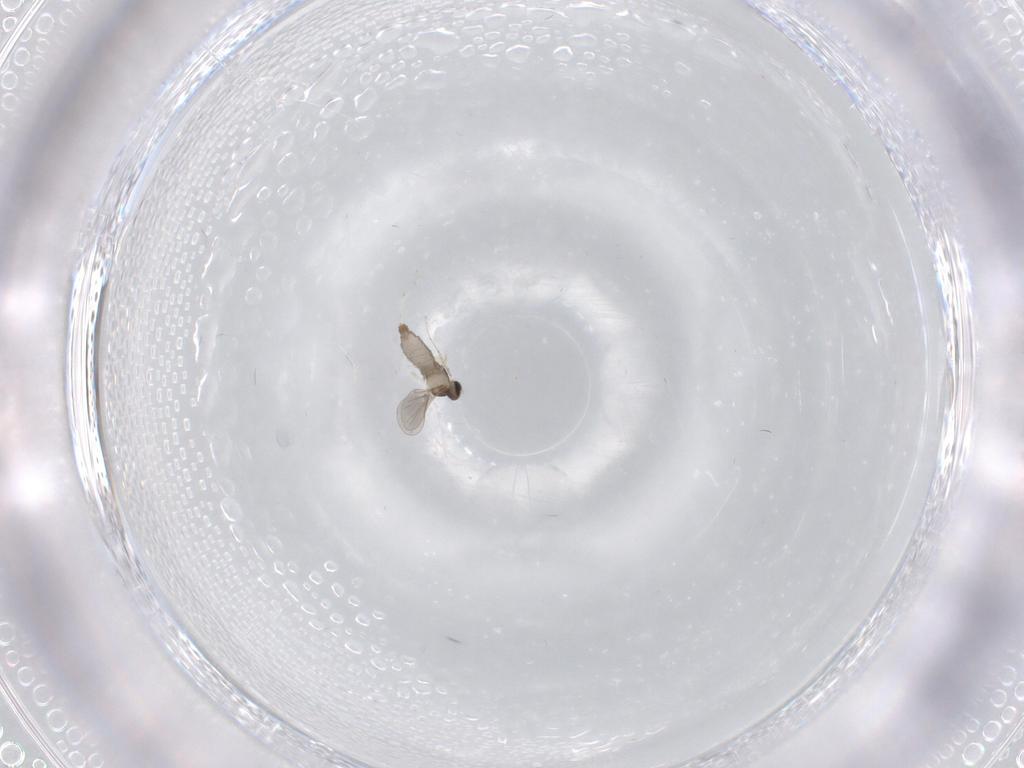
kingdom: Animalia
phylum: Arthropoda
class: Insecta
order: Diptera
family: Cecidomyiidae
